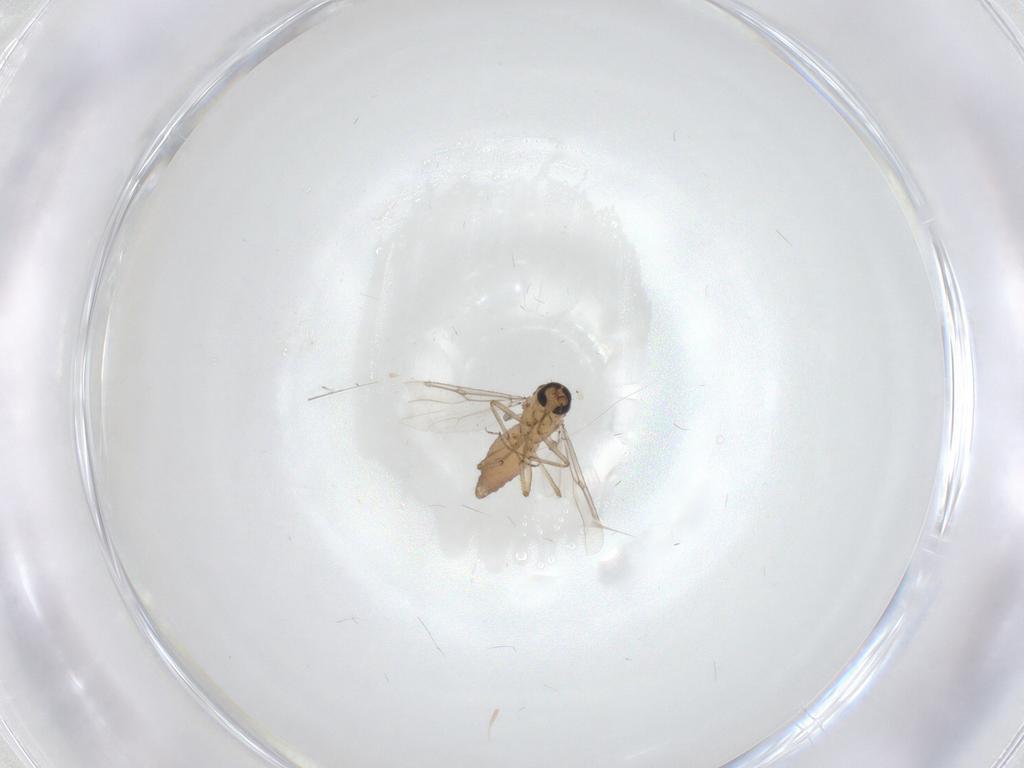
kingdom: Animalia
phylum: Arthropoda
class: Insecta
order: Diptera
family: Ceratopogonidae
